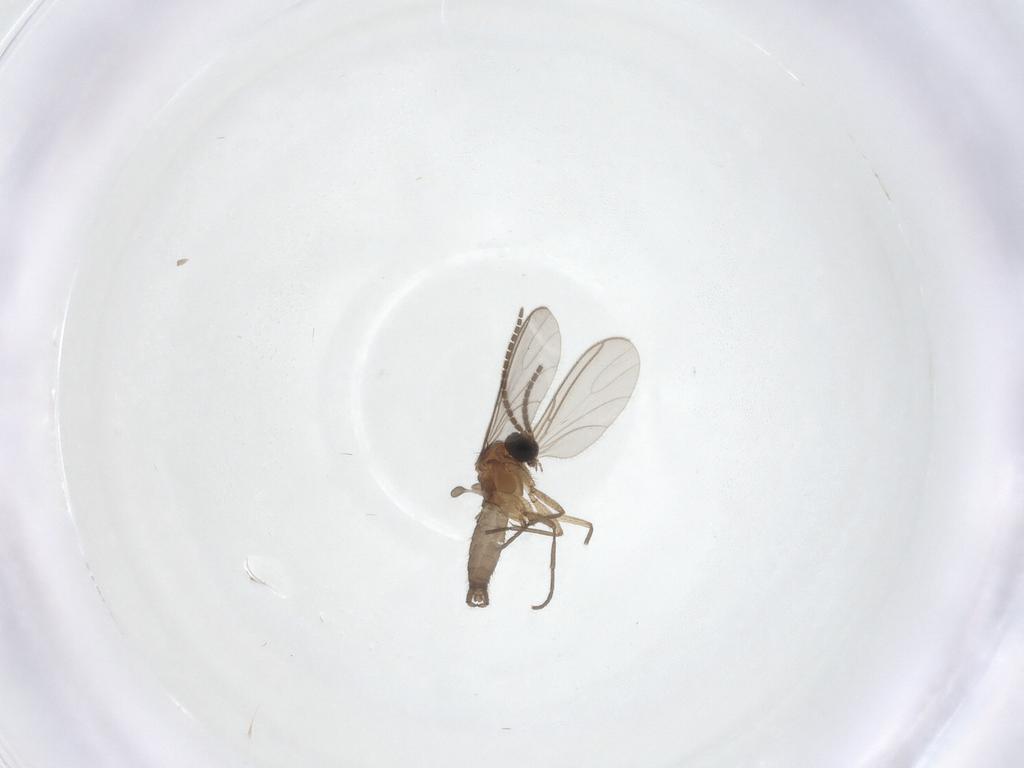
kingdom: Animalia
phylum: Arthropoda
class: Insecta
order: Diptera
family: Sciaridae
